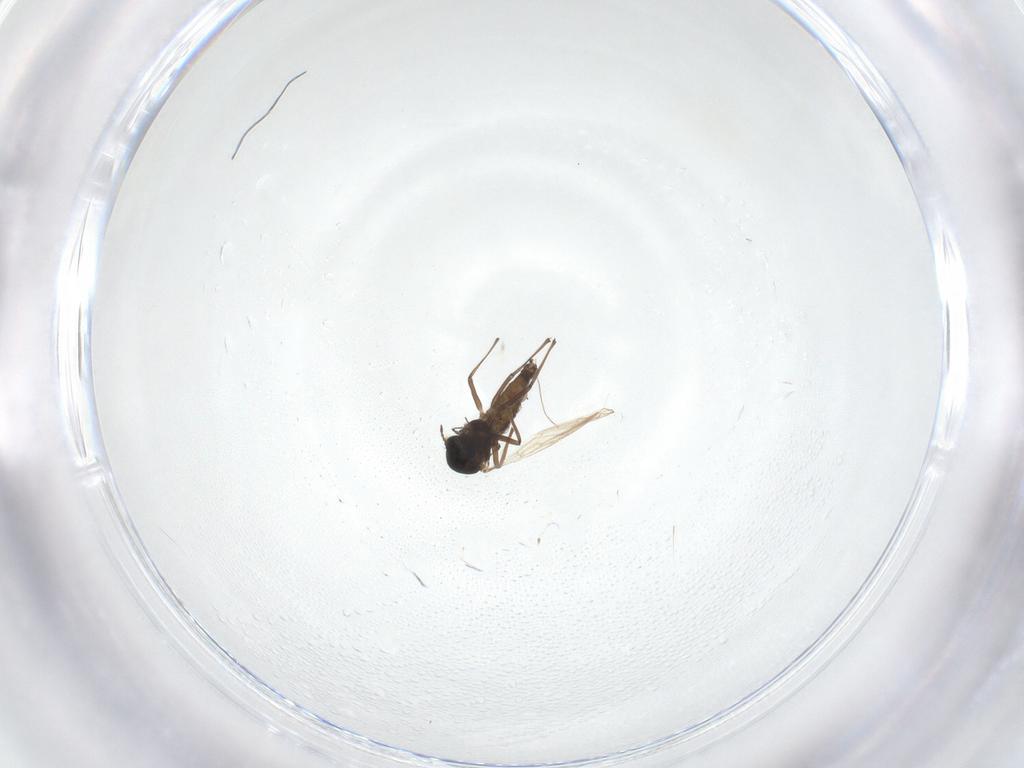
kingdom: Animalia
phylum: Arthropoda
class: Insecta
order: Diptera
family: Chironomidae
